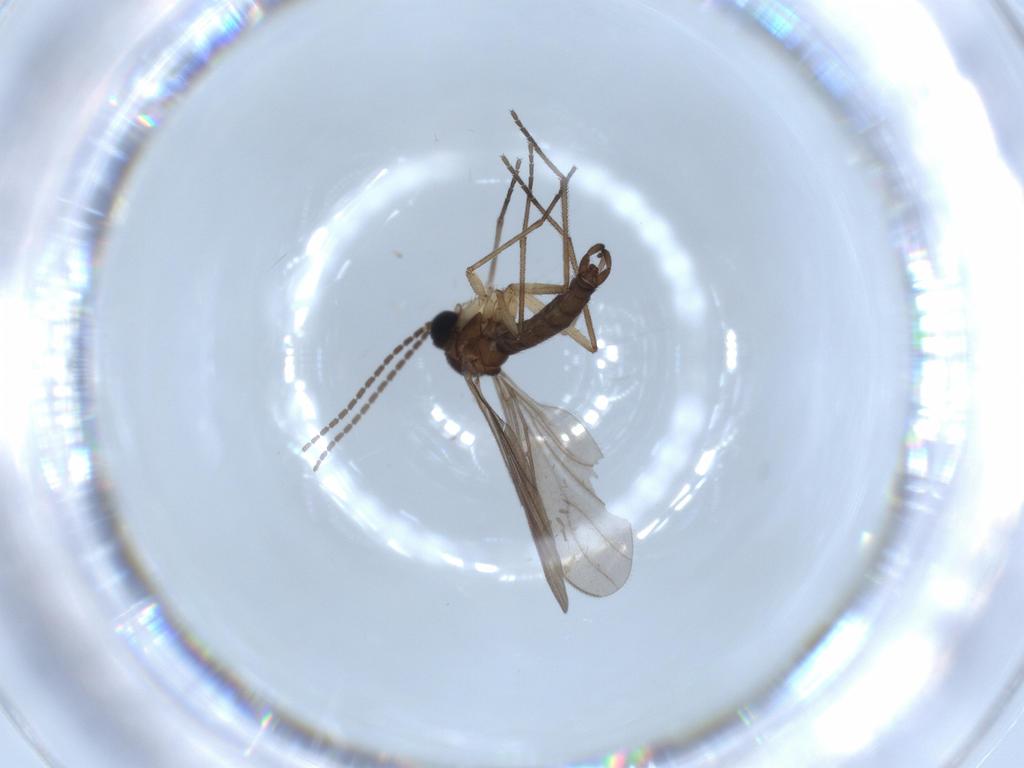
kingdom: Animalia
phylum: Arthropoda
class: Insecta
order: Diptera
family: Sciaridae
